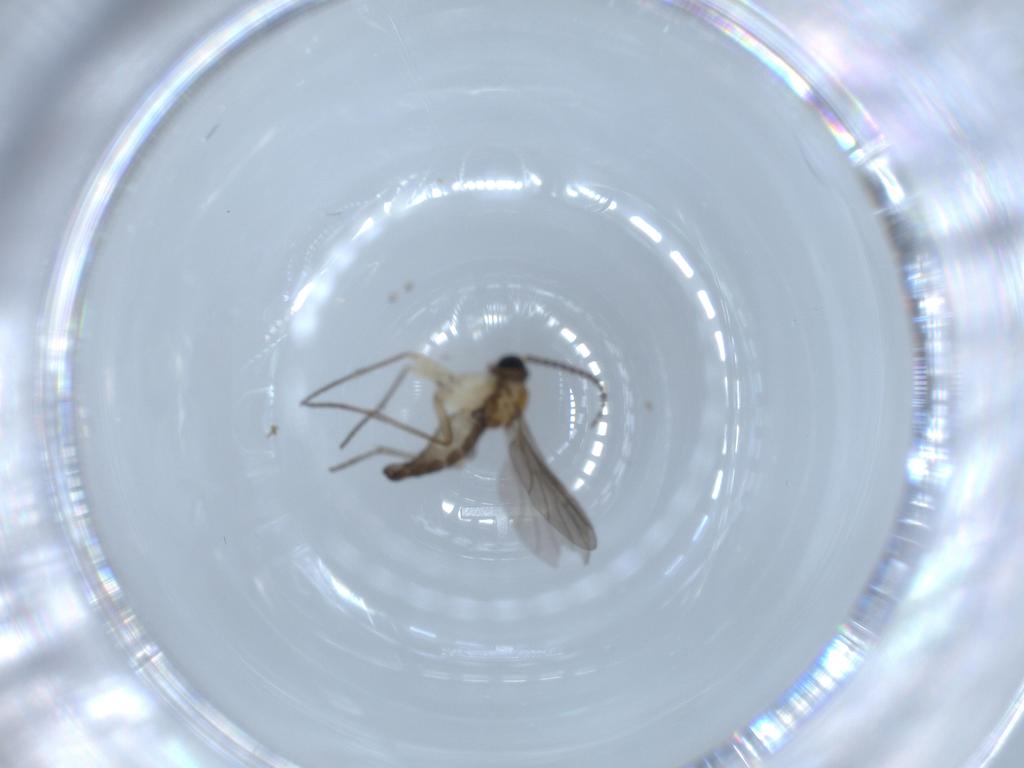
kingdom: Animalia
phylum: Arthropoda
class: Insecta
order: Diptera
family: Sciaridae
